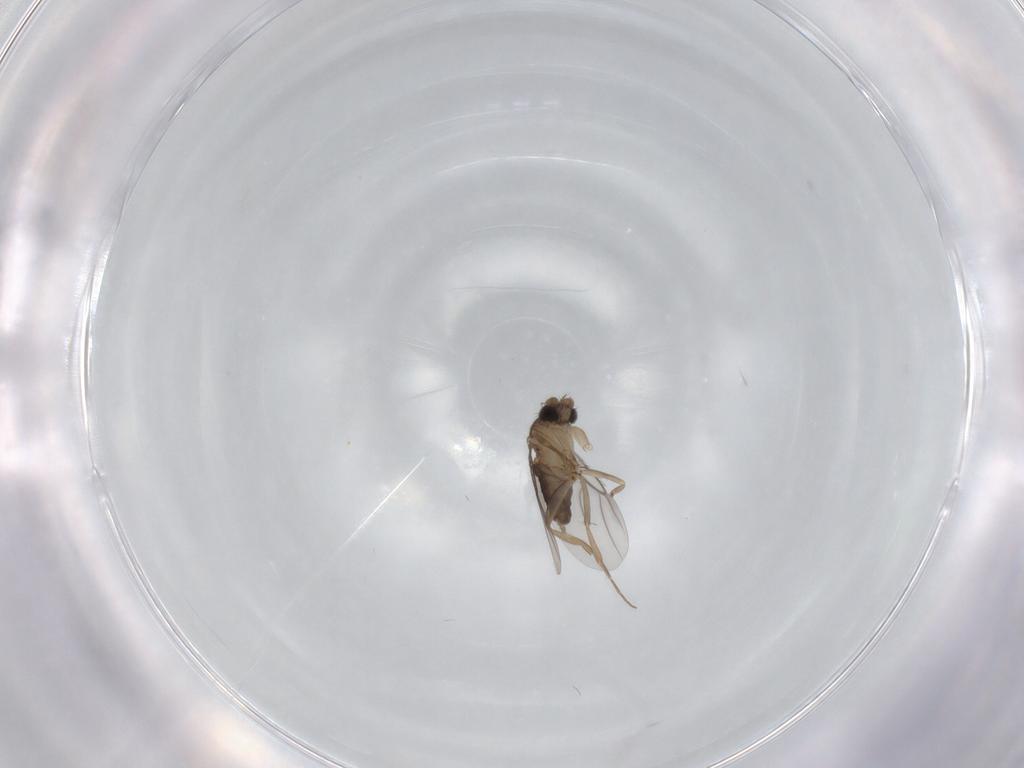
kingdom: Animalia
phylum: Arthropoda
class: Insecta
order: Diptera
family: Phoridae
